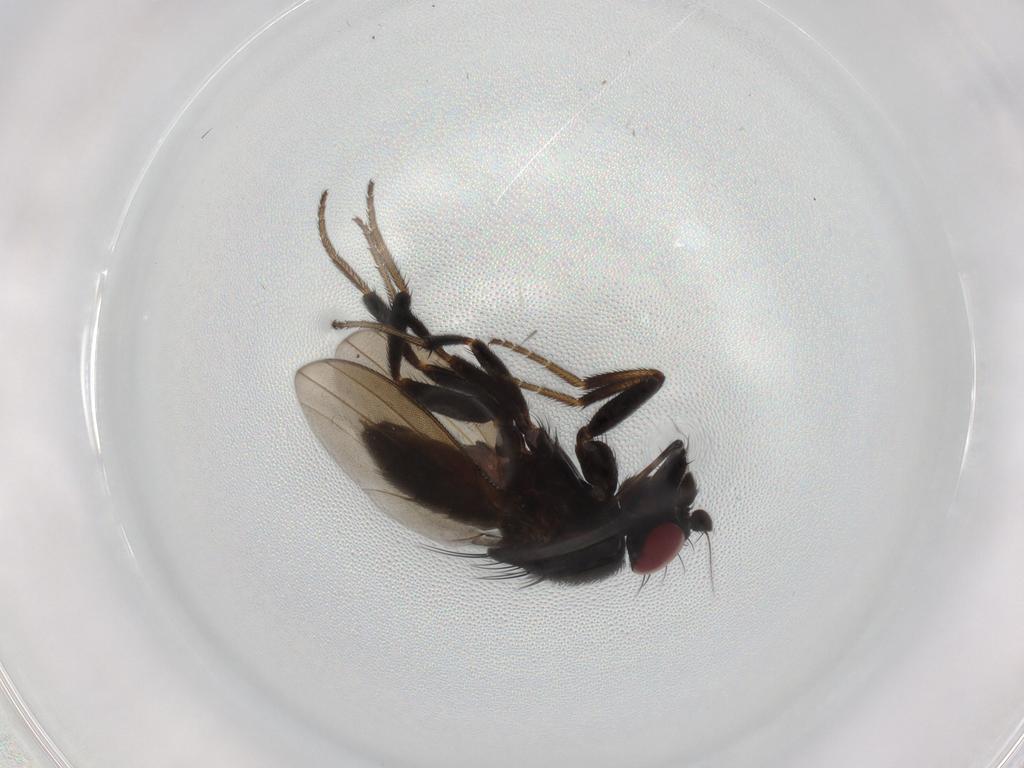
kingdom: Animalia
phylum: Arthropoda
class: Insecta
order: Diptera
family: Milichiidae
